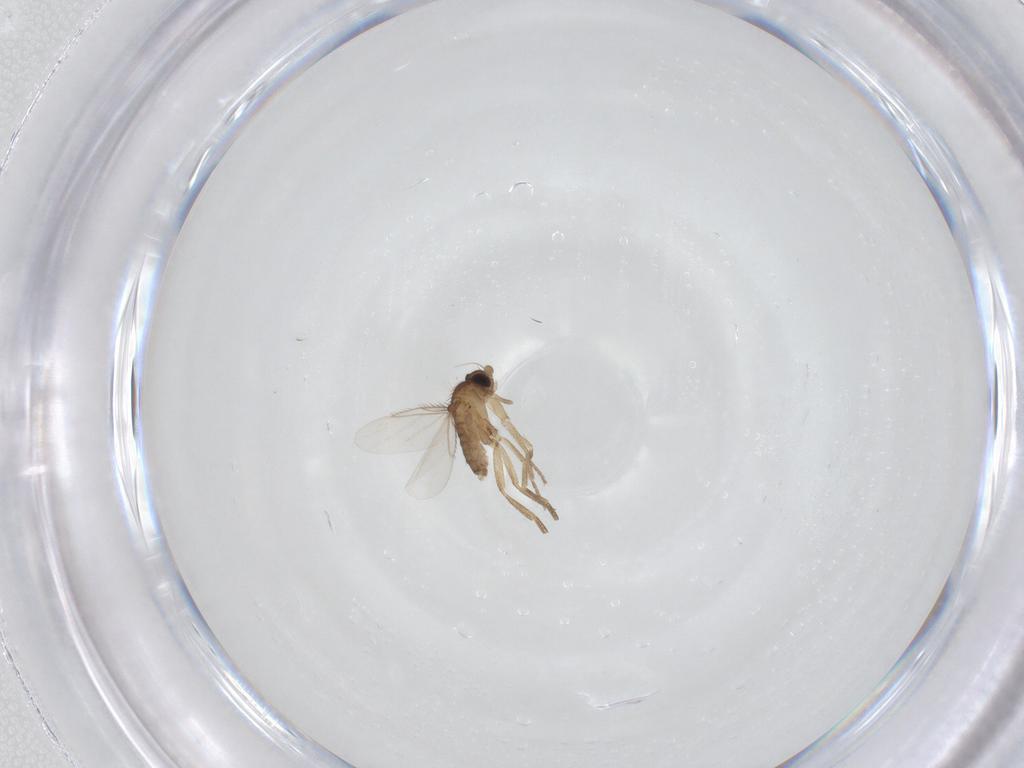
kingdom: Animalia
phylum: Arthropoda
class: Insecta
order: Diptera
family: Phoridae
